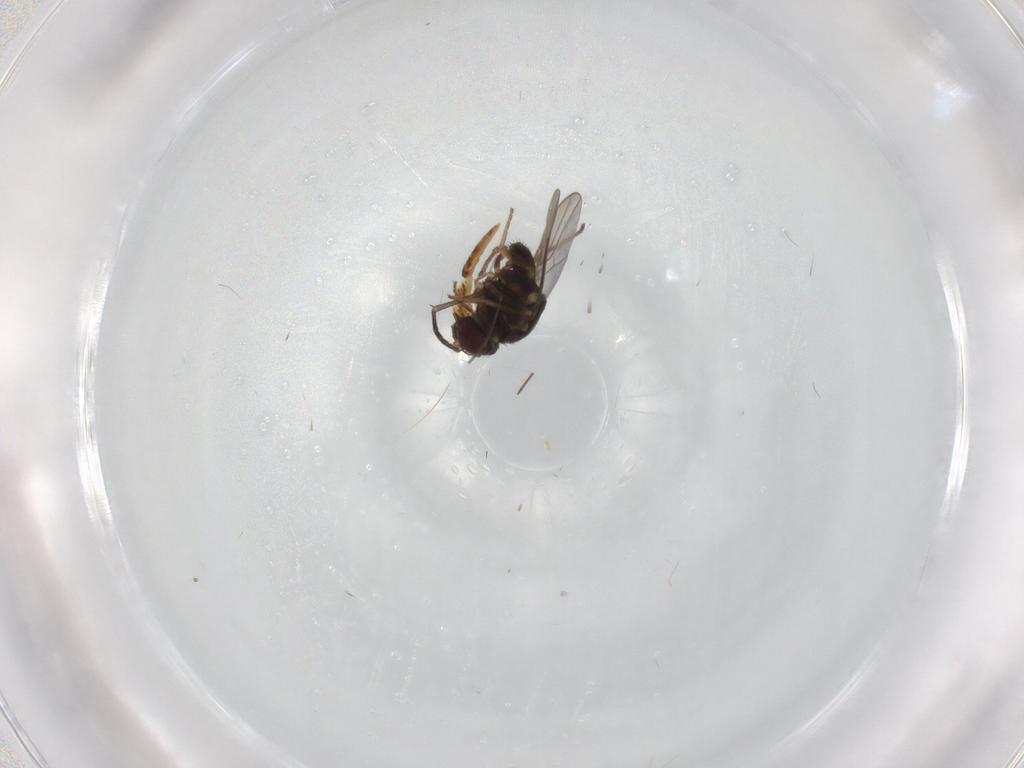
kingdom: Animalia
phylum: Arthropoda
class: Insecta
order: Diptera
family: Chloropidae
